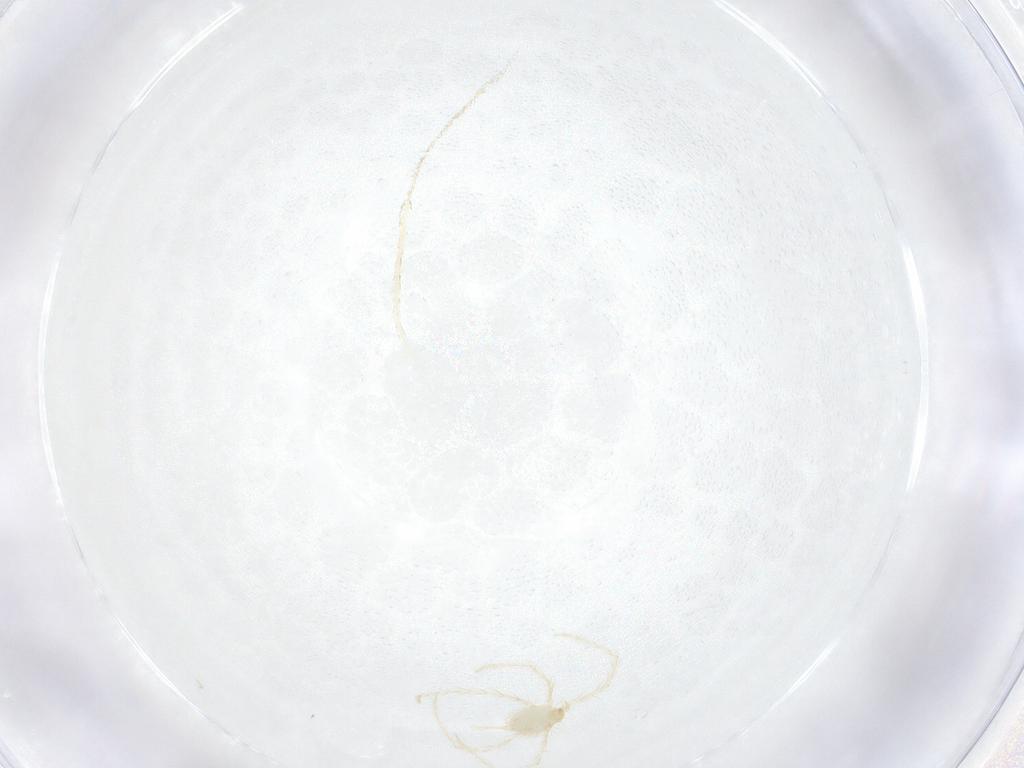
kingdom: Animalia
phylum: Arthropoda
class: Arachnida
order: Trombidiformes
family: Erythraeidae
